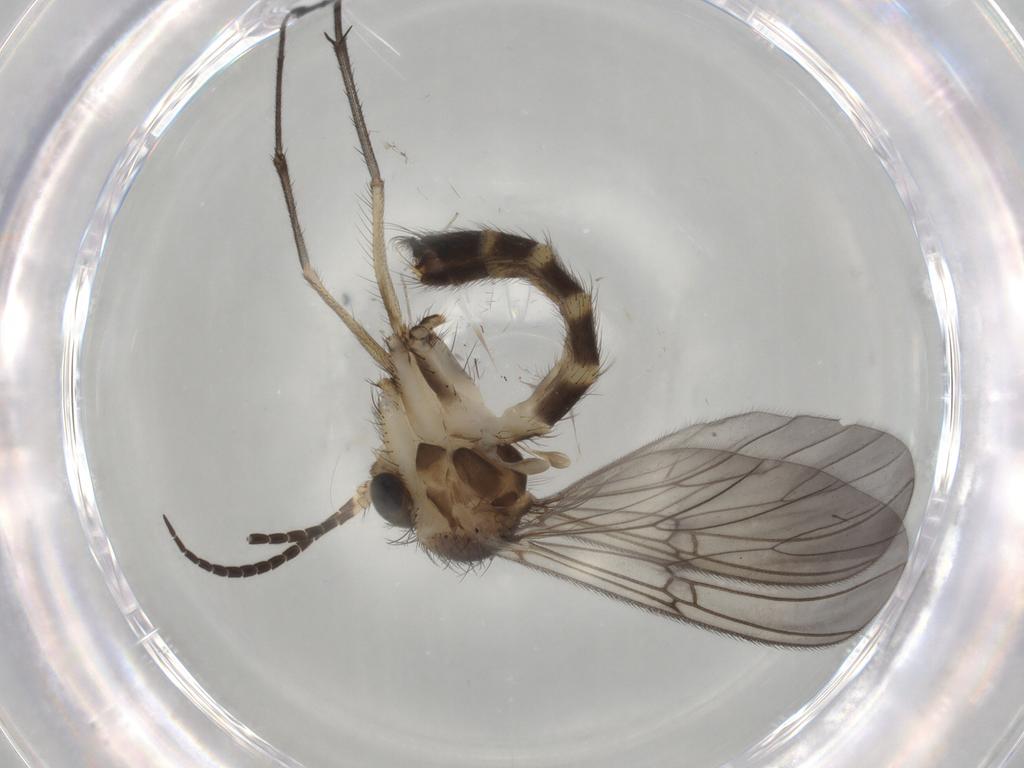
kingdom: Animalia
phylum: Arthropoda
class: Insecta
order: Diptera
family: Mycetophilidae
